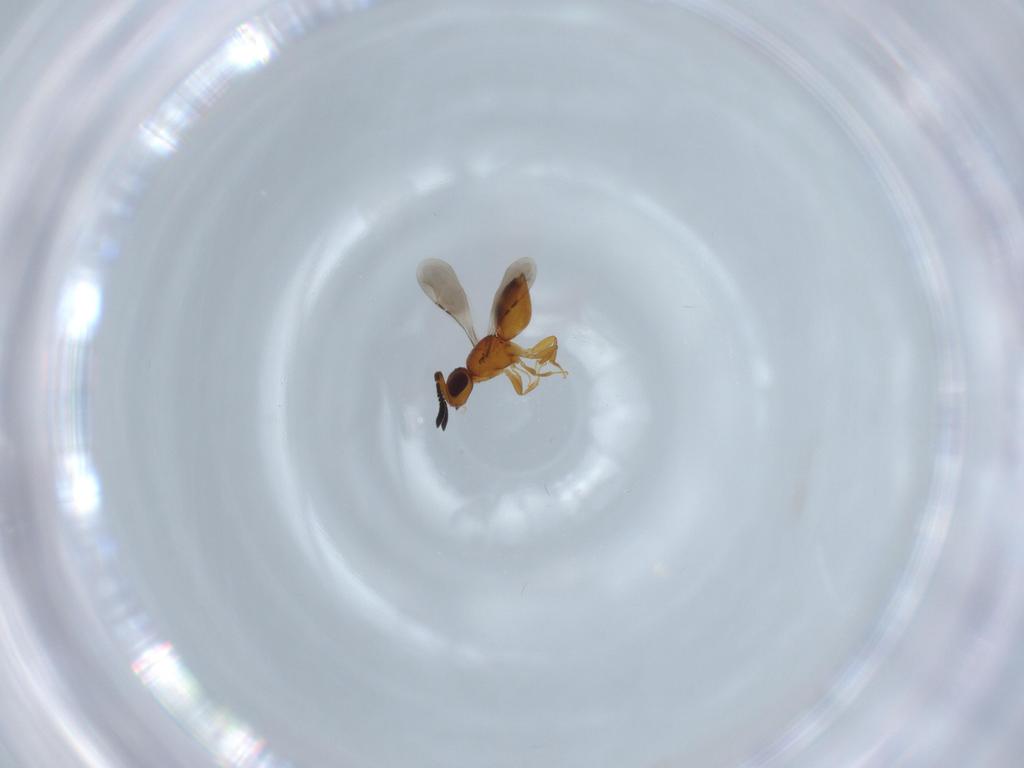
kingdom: Animalia
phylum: Arthropoda
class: Insecta
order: Hymenoptera
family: Ceraphronidae
